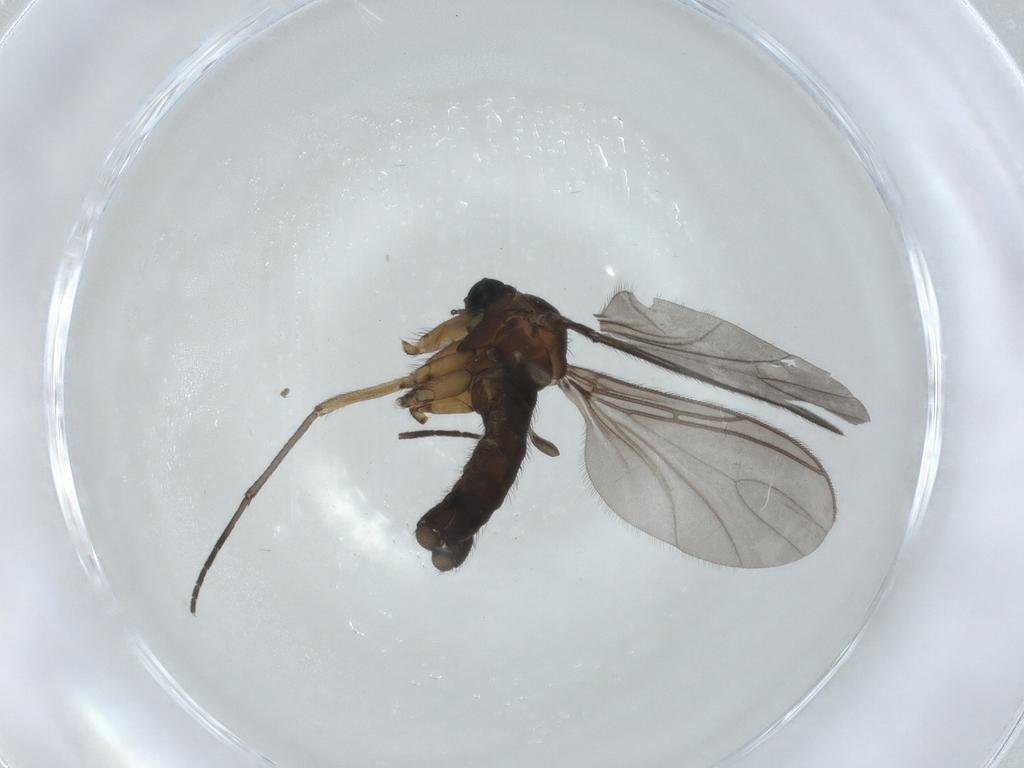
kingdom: Animalia
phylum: Arthropoda
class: Insecta
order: Diptera
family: Sciaridae
